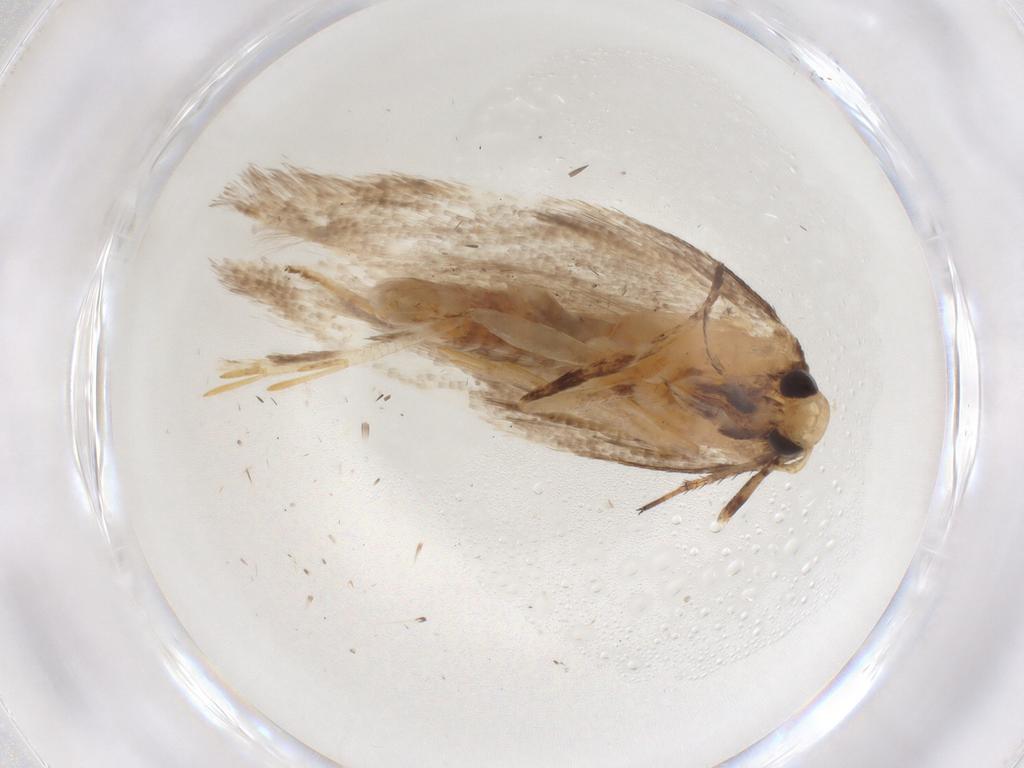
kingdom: Animalia
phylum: Arthropoda
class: Insecta
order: Lepidoptera
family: Gelechiidae
